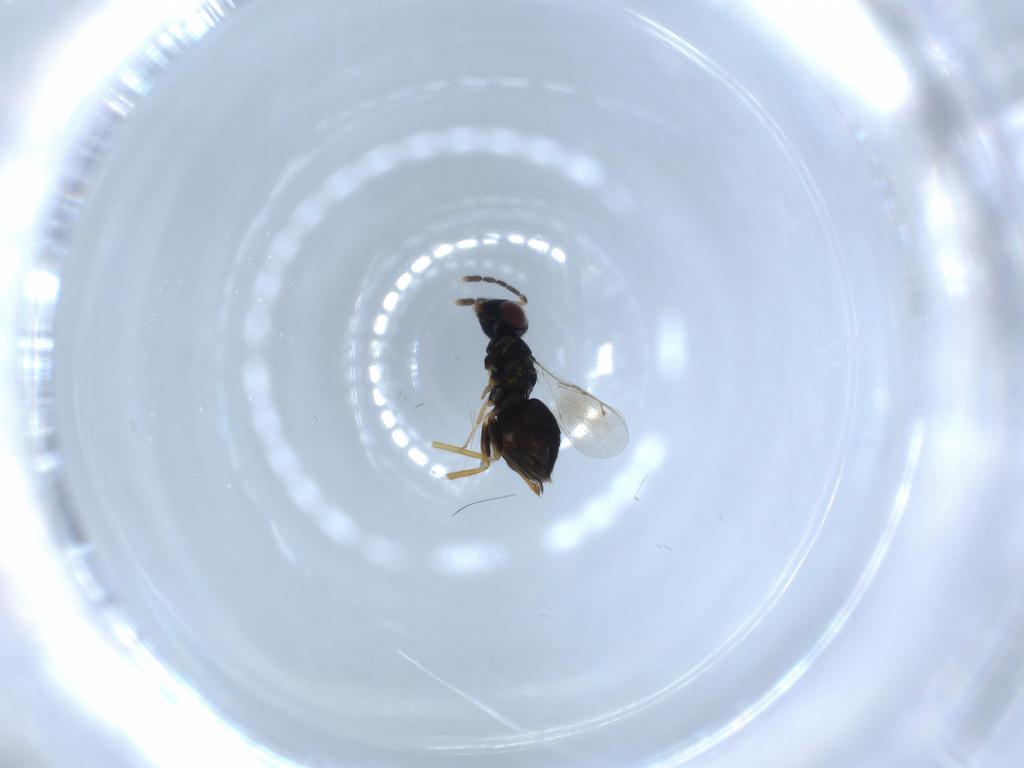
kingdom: Animalia
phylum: Arthropoda
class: Insecta
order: Hymenoptera
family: Eulophidae
